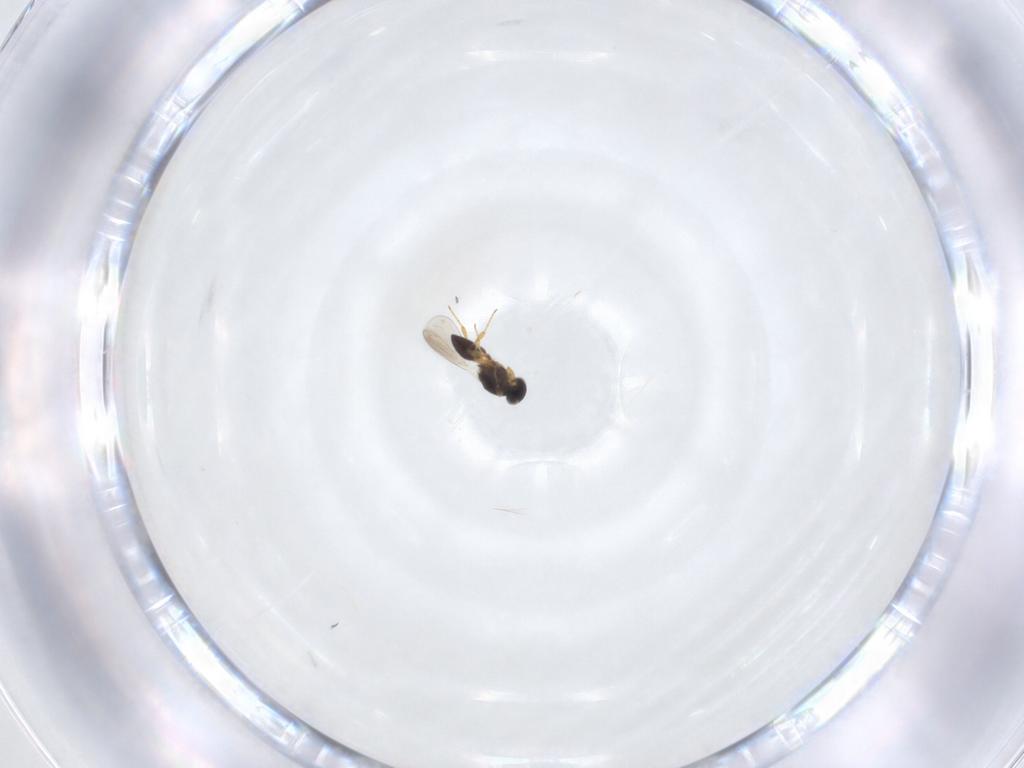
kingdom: Animalia
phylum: Arthropoda
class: Insecta
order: Hymenoptera
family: Platygastridae
